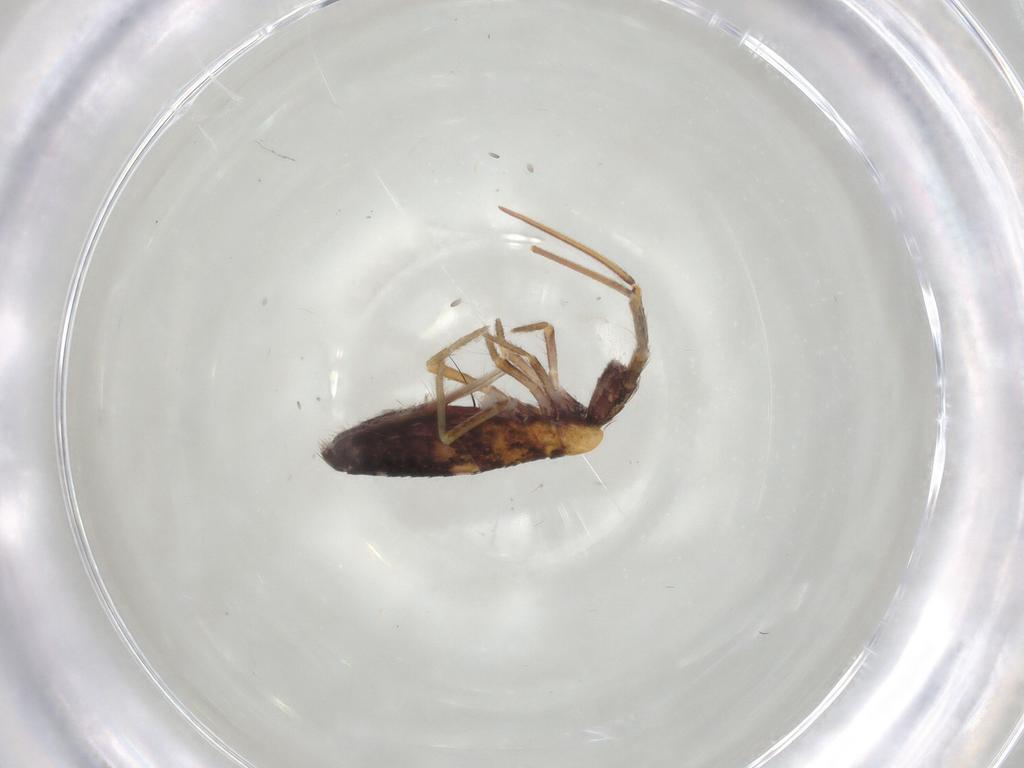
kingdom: Animalia
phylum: Arthropoda
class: Collembola
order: Entomobryomorpha
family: Entomobryidae
